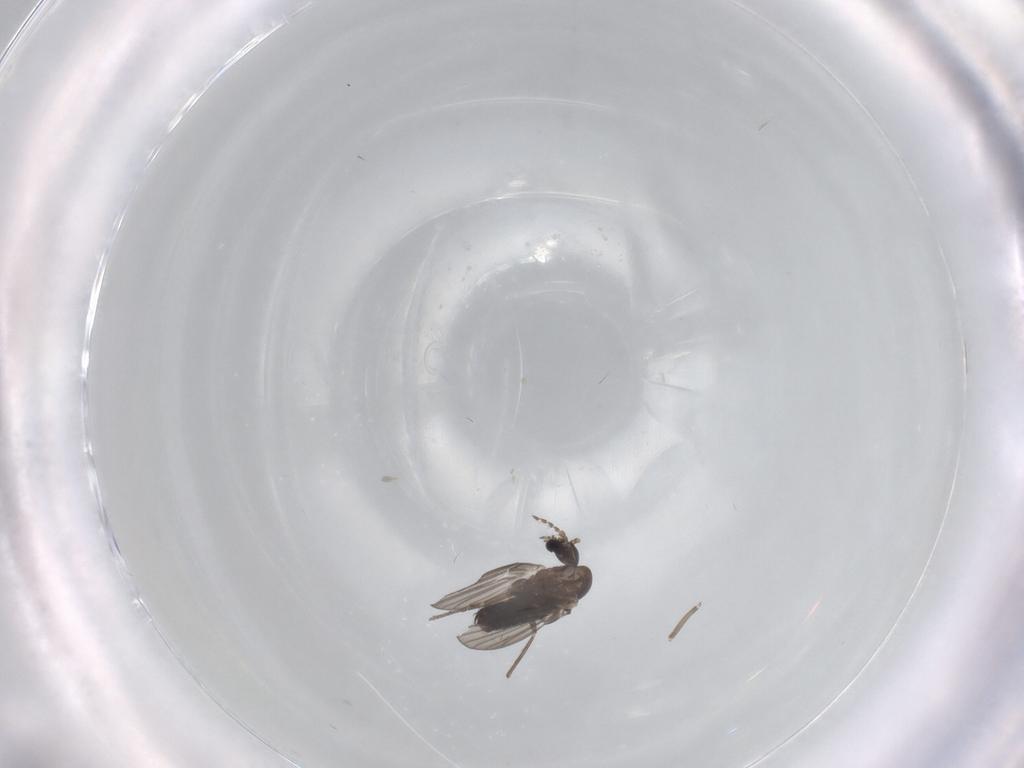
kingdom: Animalia
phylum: Arthropoda
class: Insecta
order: Diptera
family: Psychodidae
